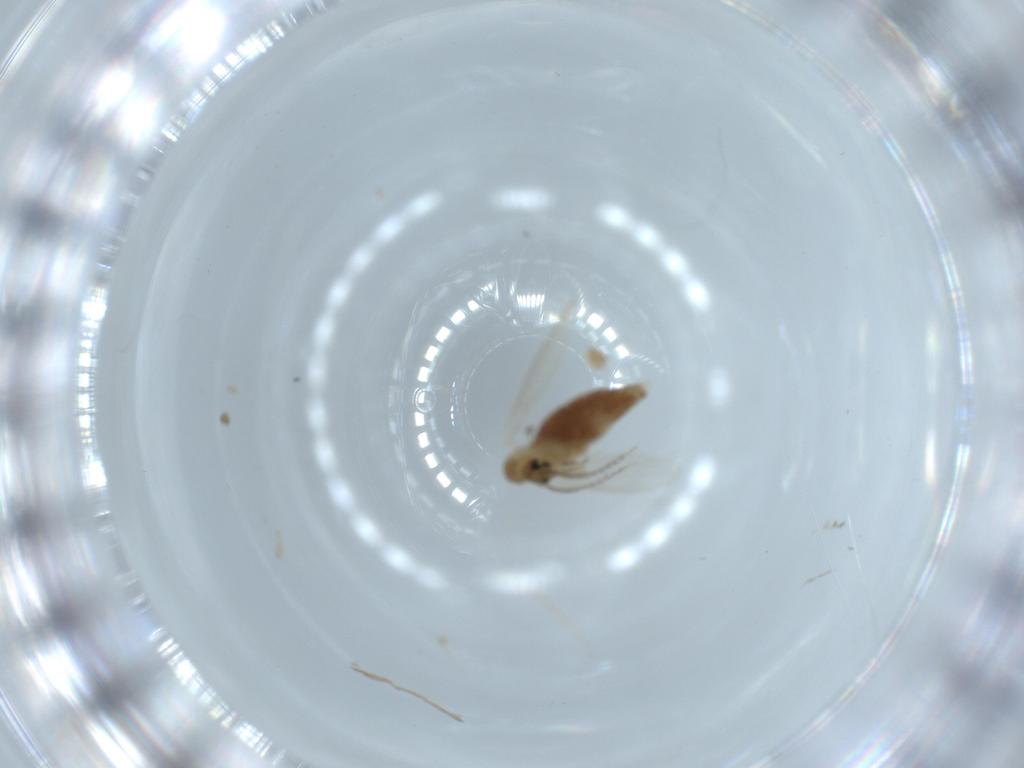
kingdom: Animalia
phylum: Arthropoda
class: Insecta
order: Diptera
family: Psychodidae
